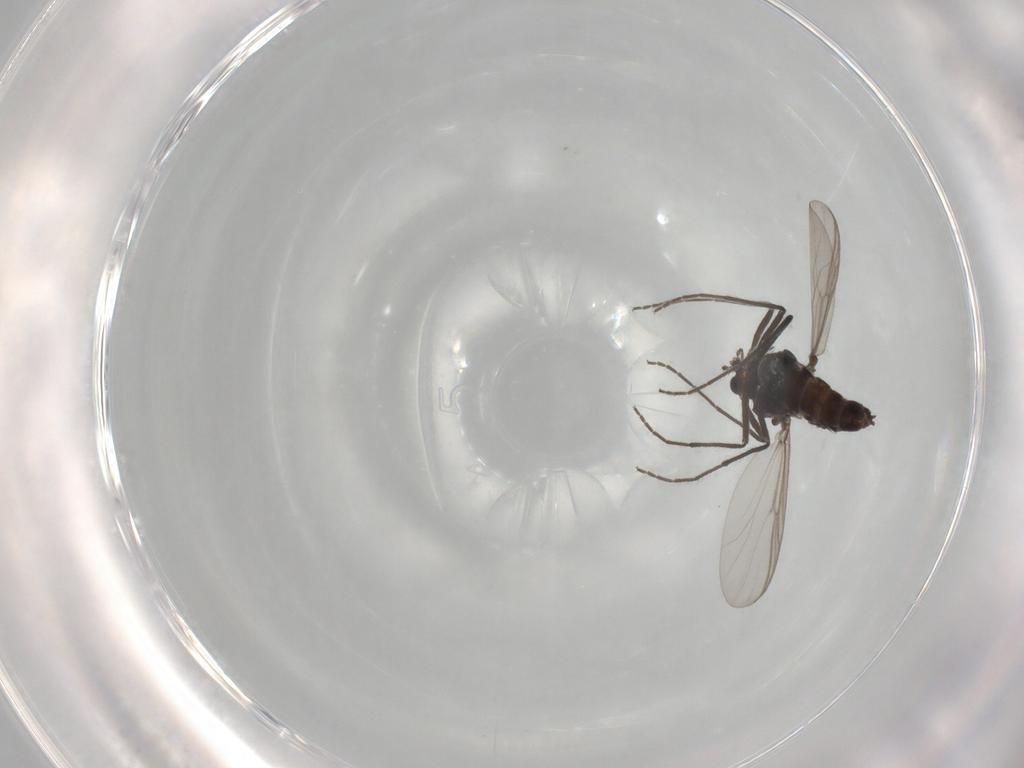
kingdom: Animalia
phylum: Arthropoda
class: Insecta
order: Diptera
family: Chironomidae
